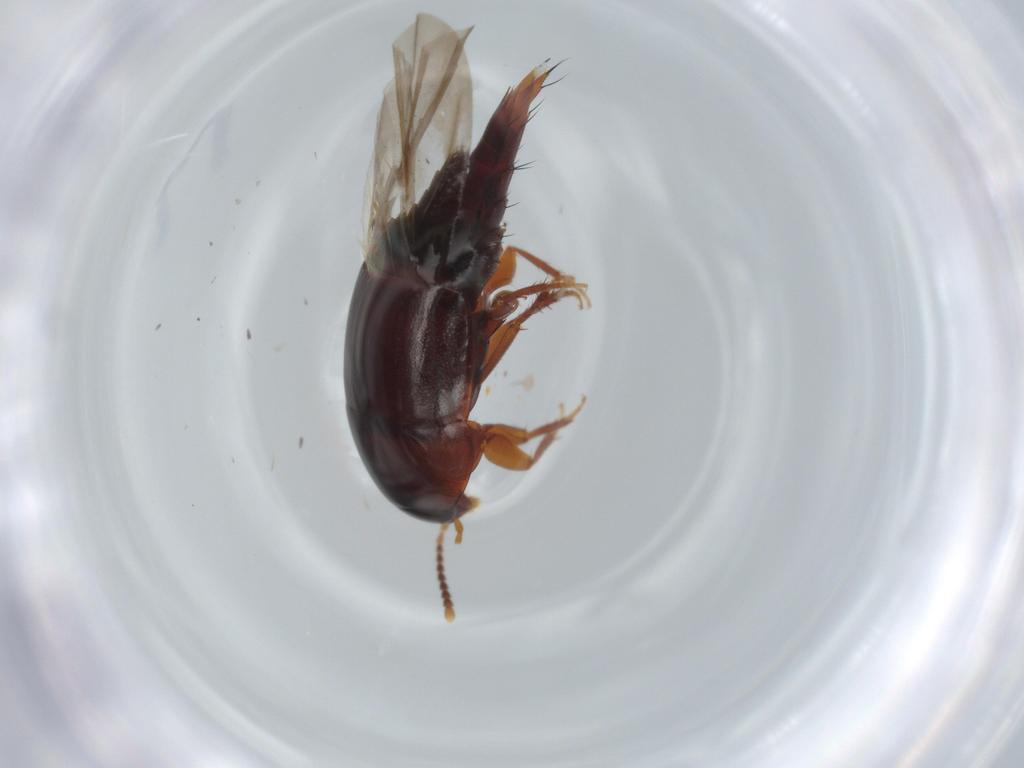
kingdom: Animalia
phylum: Arthropoda
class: Insecta
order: Coleoptera
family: Staphylinidae
